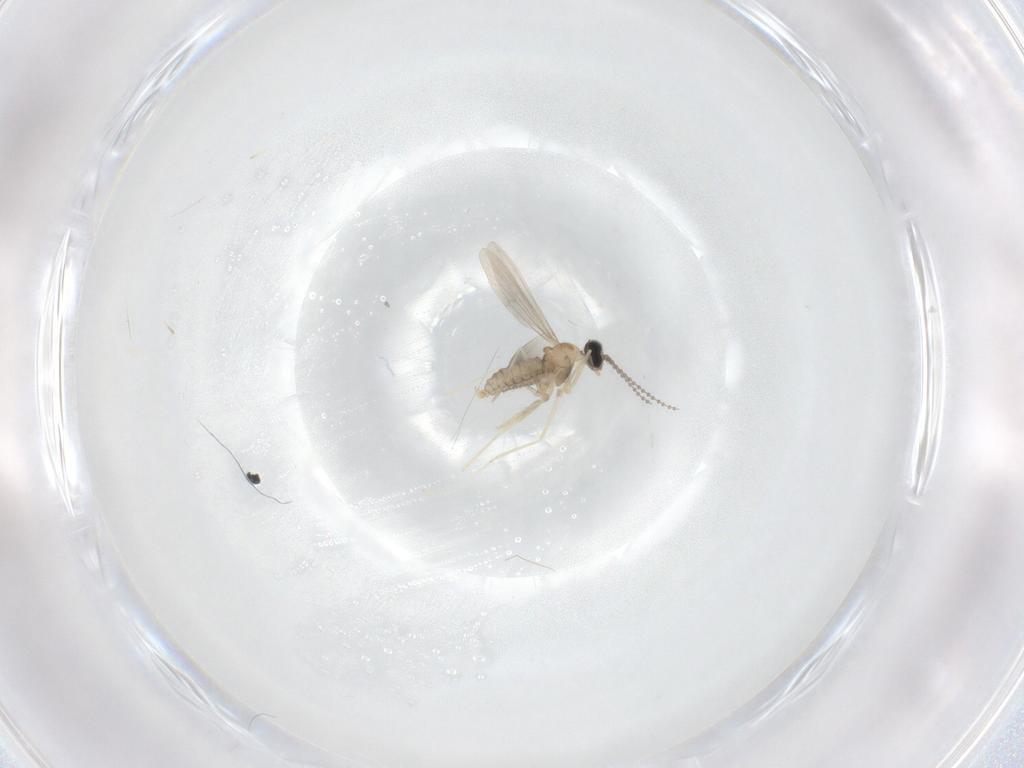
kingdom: Animalia
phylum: Arthropoda
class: Insecta
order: Diptera
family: Cecidomyiidae
